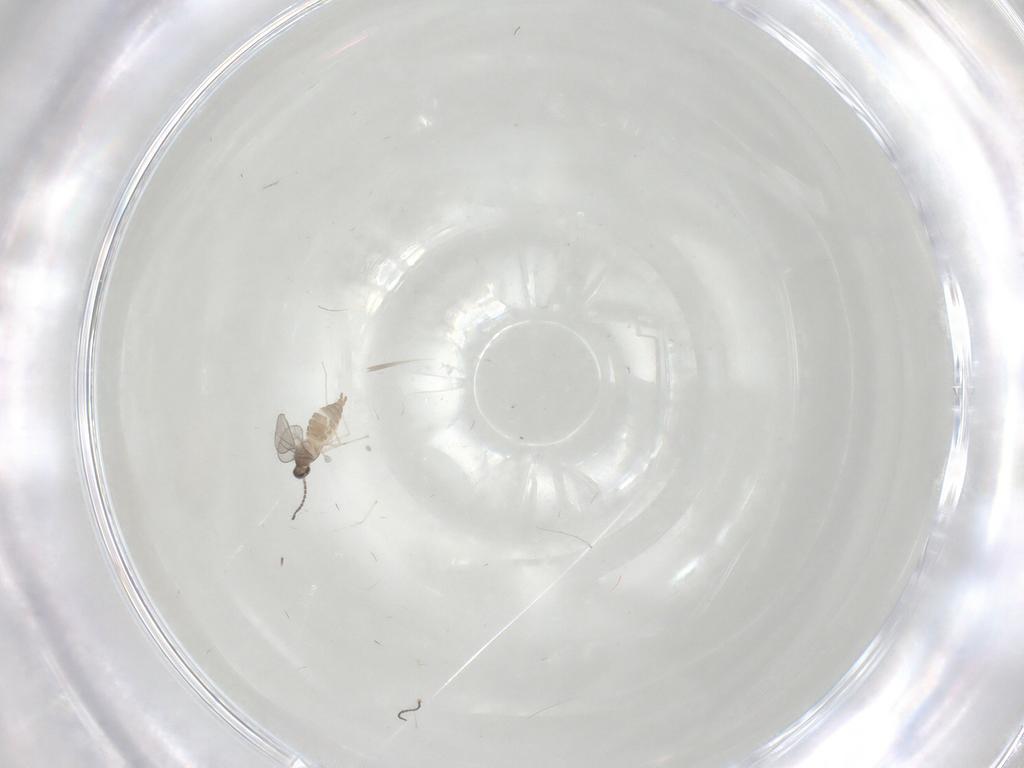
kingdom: Animalia
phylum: Arthropoda
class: Insecta
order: Diptera
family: Cecidomyiidae
